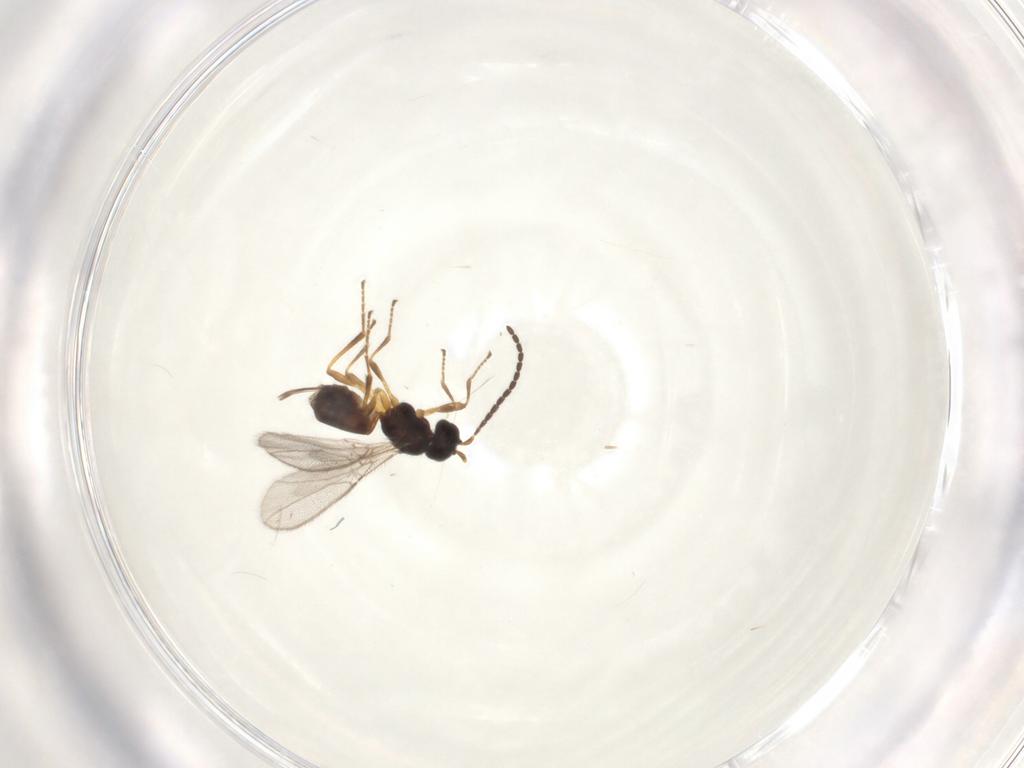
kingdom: Animalia
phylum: Arthropoda
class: Insecta
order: Hymenoptera
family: Braconidae
